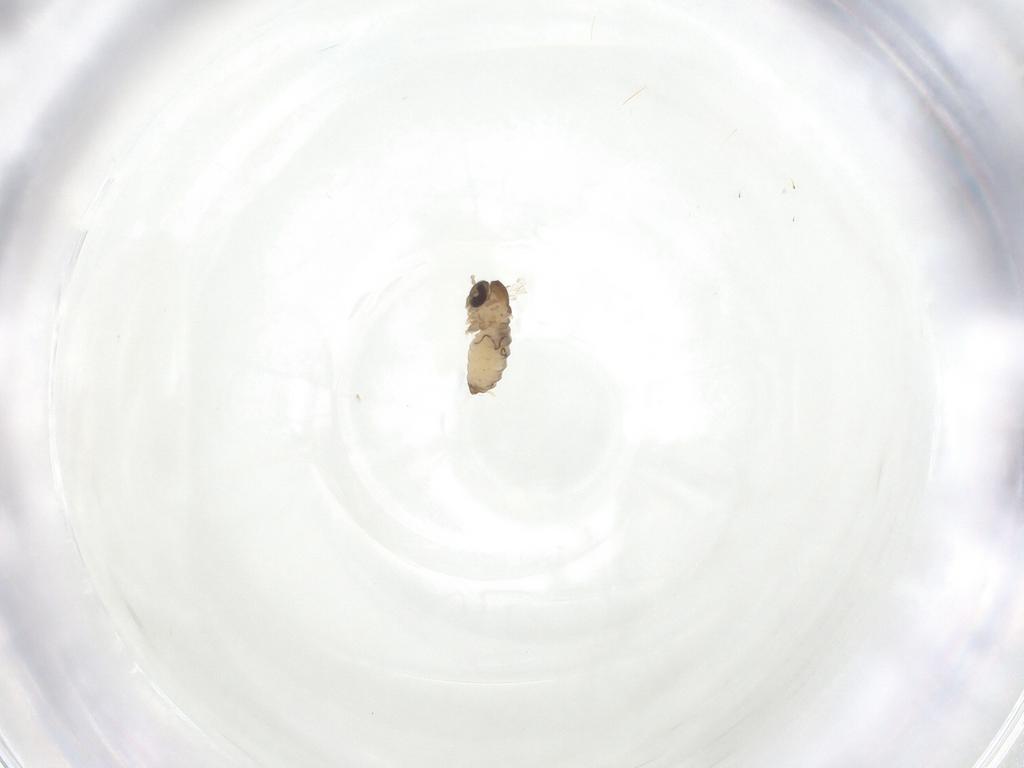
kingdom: Animalia
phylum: Arthropoda
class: Insecta
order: Diptera
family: Psychodidae
